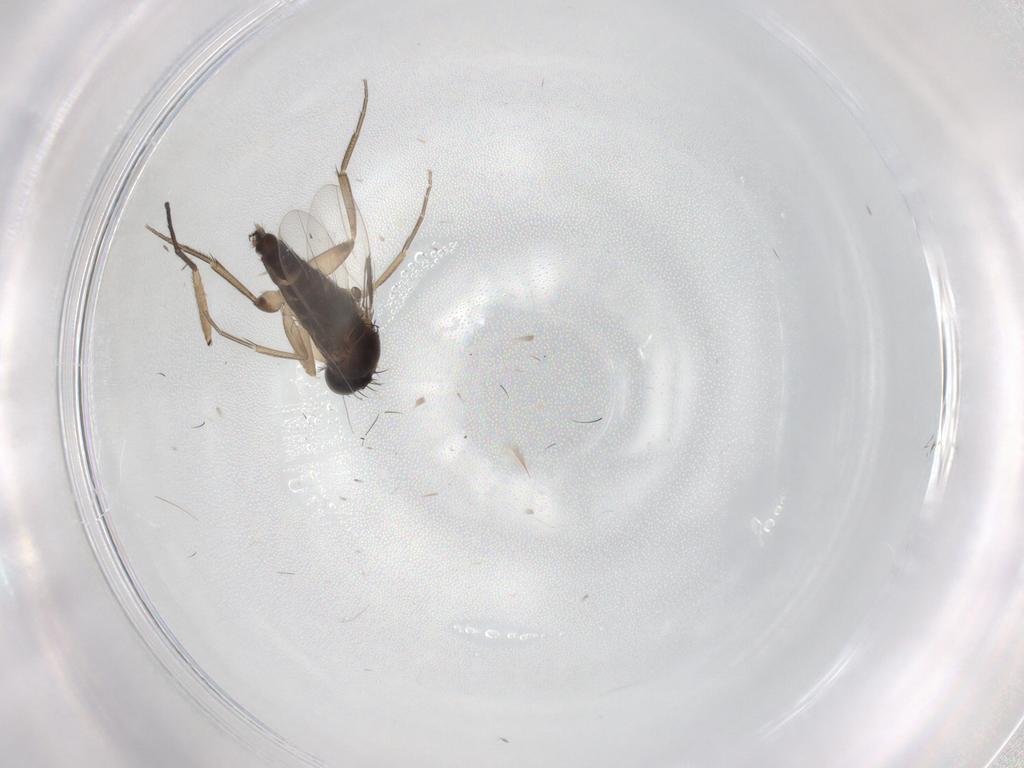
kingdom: Animalia
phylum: Arthropoda
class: Insecta
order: Diptera
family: Phoridae
